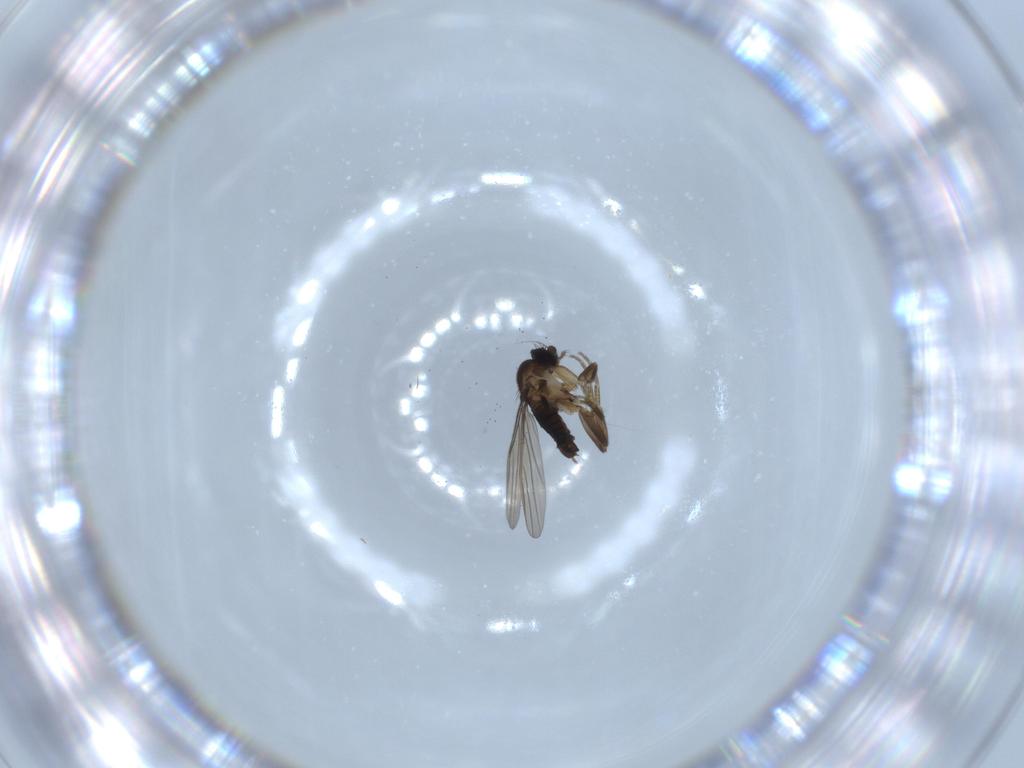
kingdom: Animalia
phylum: Arthropoda
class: Insecta
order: Diptera
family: Phoridae
